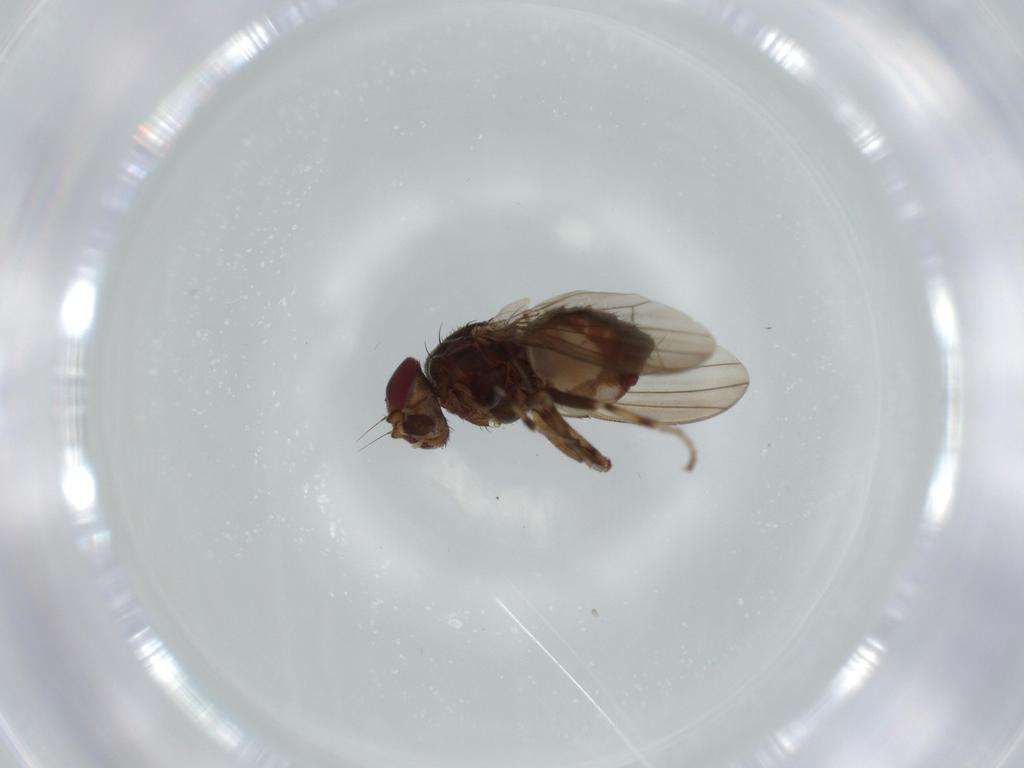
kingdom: Animalia
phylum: Arthropoda
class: Insecta
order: Diptera
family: Heleomyzidae
